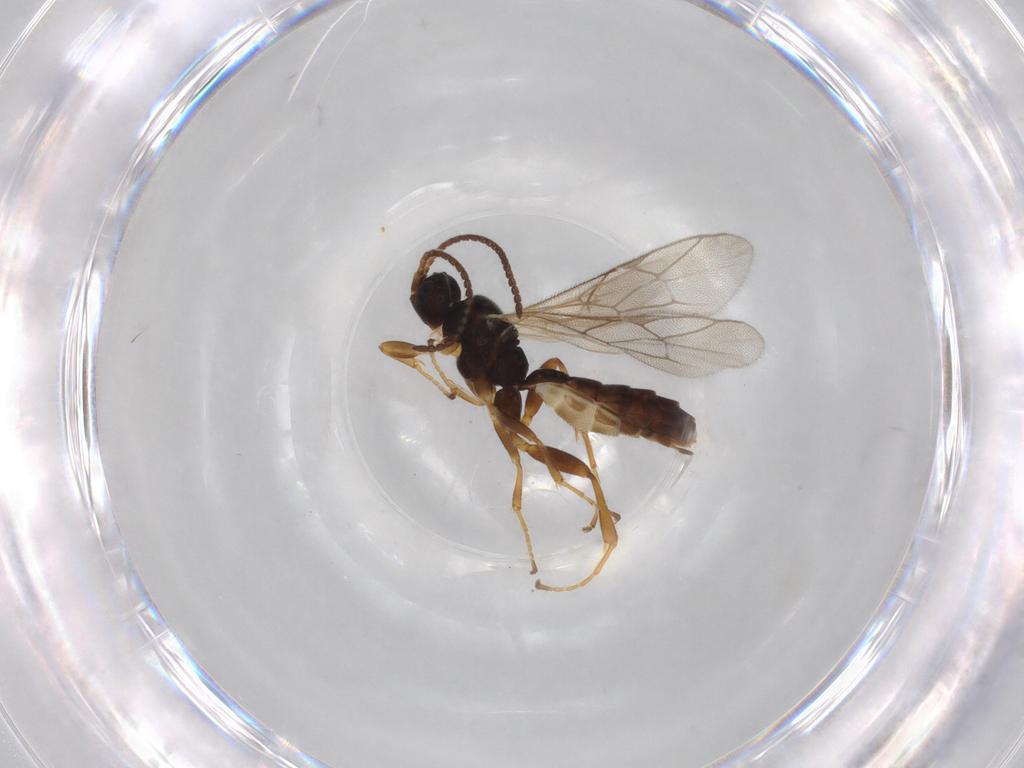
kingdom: Animalia
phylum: Arthropoda
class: Insecta
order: Hymenoptera
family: Ichneumonidae
